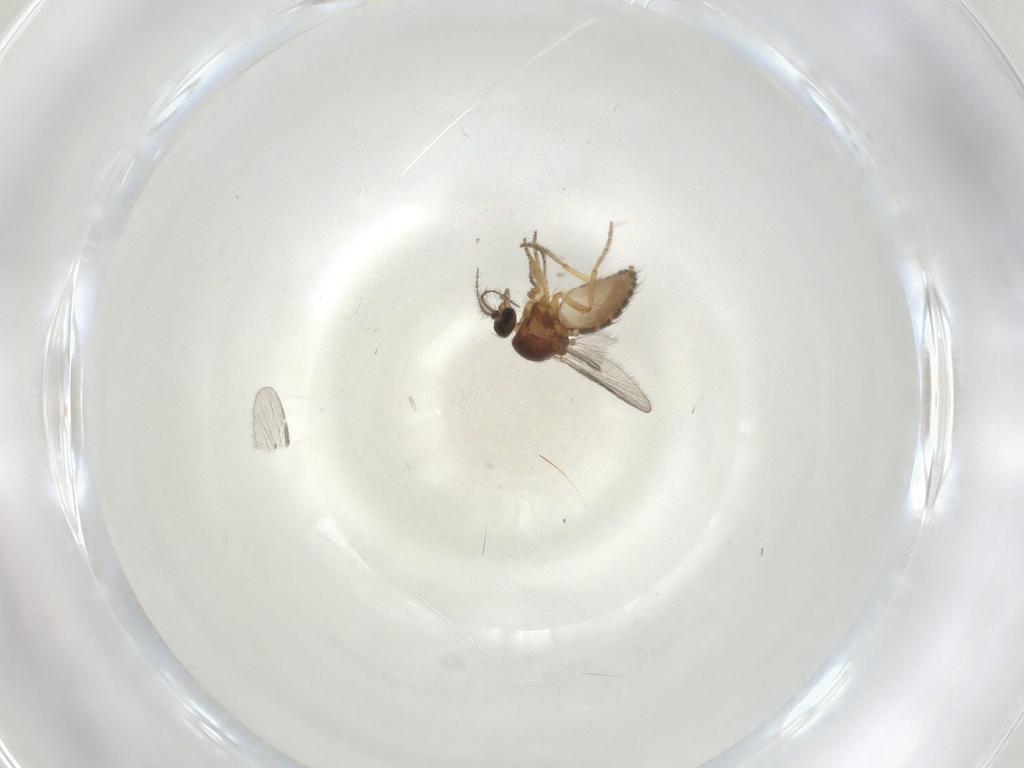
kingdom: Animalia
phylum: Arthropoda
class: Insecta
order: Diptera
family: Ceratopogonidae
